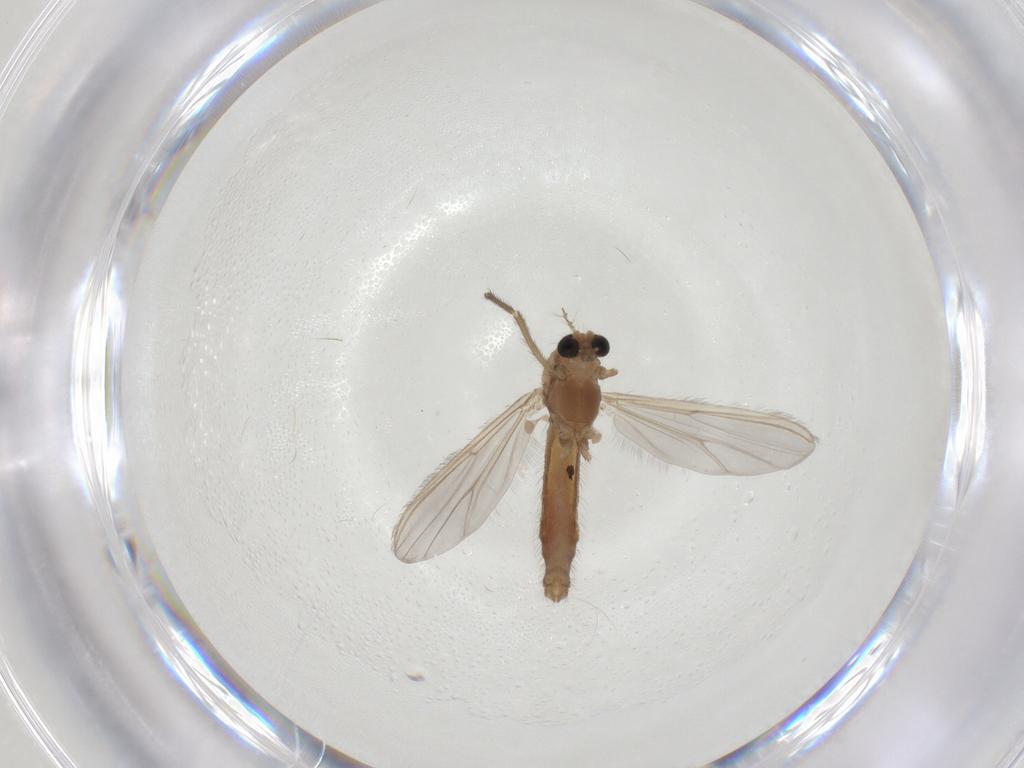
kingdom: Animalia
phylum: Arthropoda
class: Insecta
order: Diptera
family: Chironomidae
